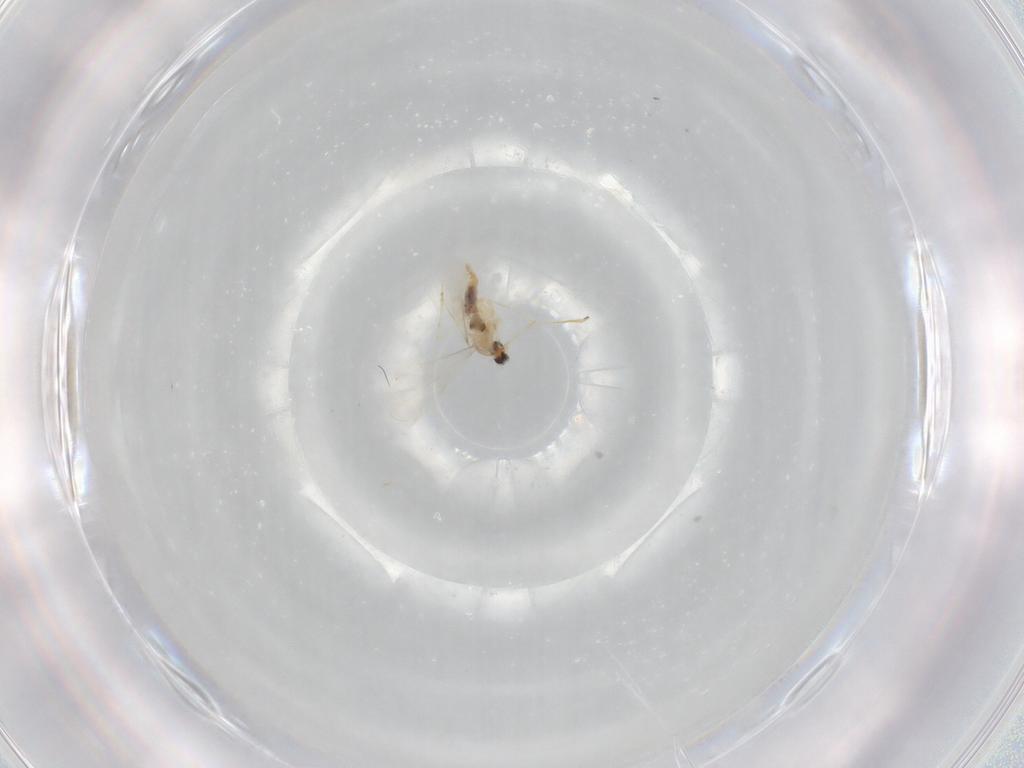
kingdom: Animalia
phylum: Arthropoda
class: Insecta
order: Diptera
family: Cecidomyiidae
